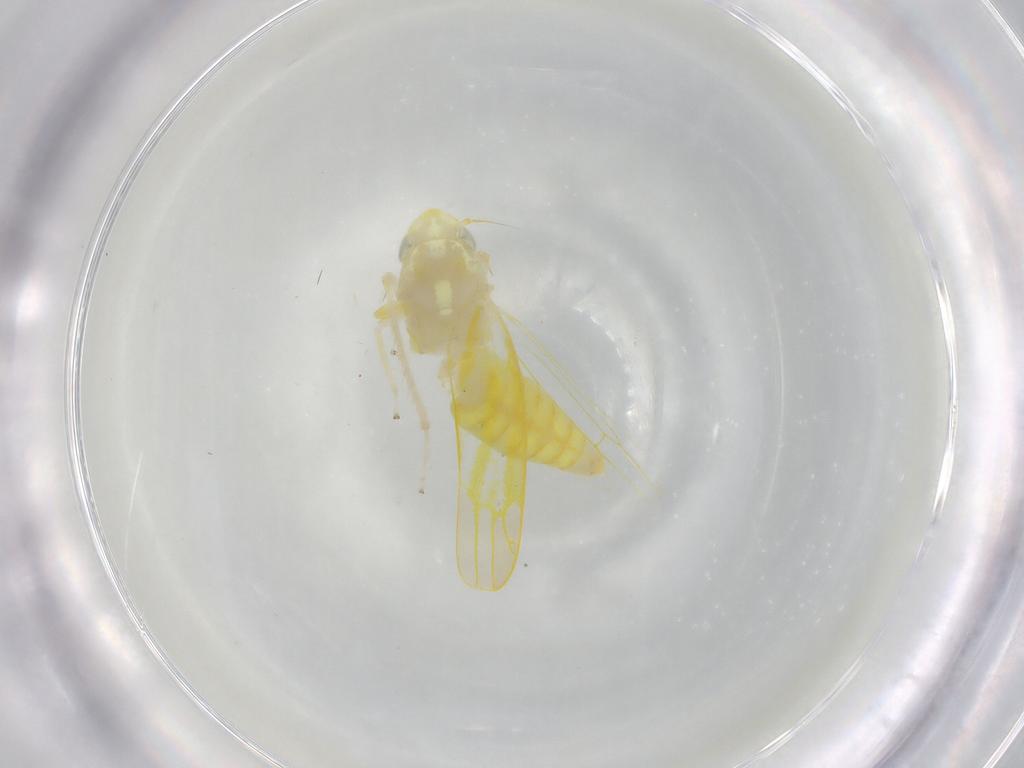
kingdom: Animalia
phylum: Arthropoda
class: Insecta
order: Hemiptera
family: Cicadellidae
